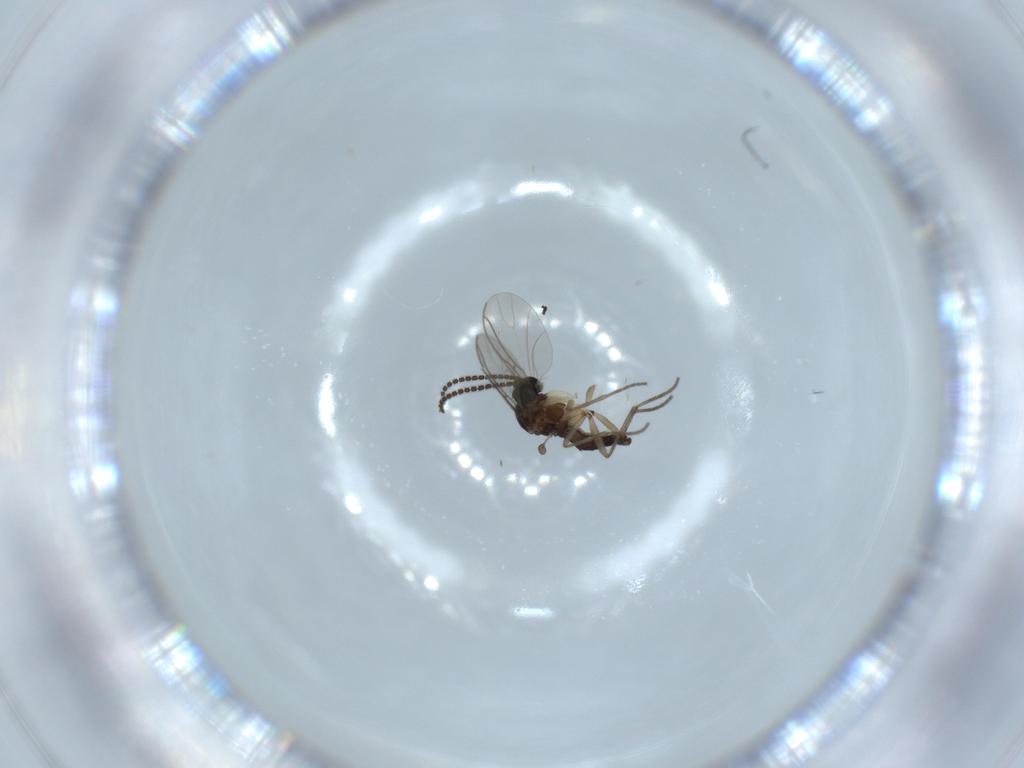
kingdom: Animalia
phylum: Arthropoda
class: Insecta
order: Diptera
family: Sciaridae
